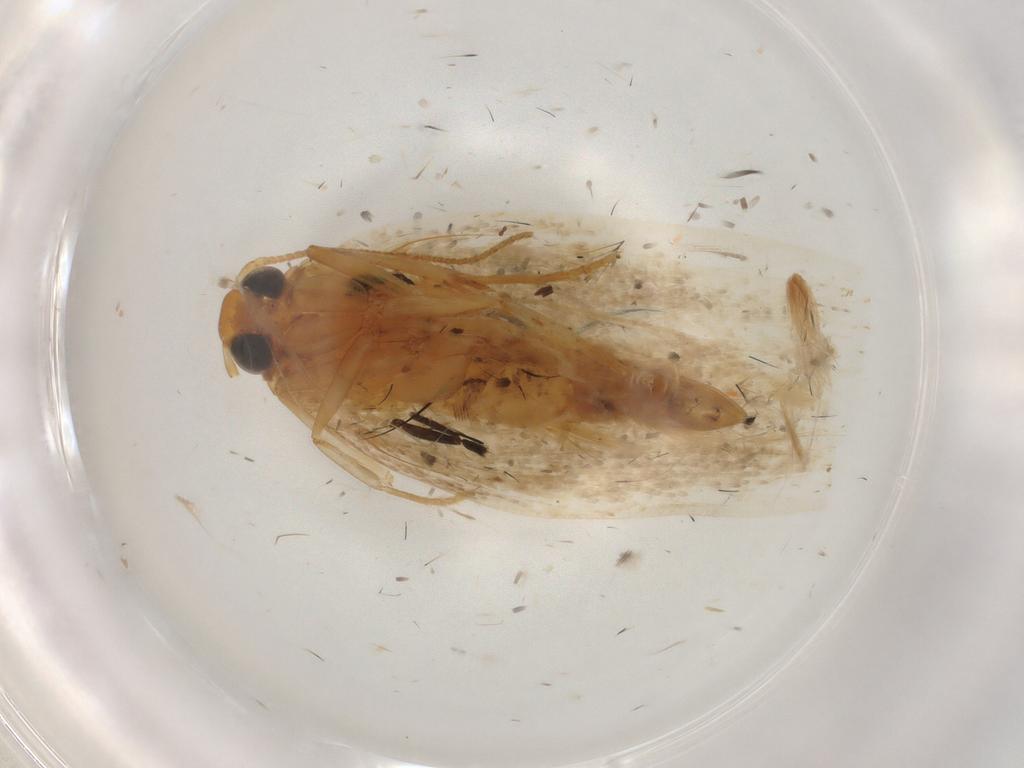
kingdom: Animalia
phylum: Arthropoda
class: Insecta
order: Lepidoptera
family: Gelechiidae
